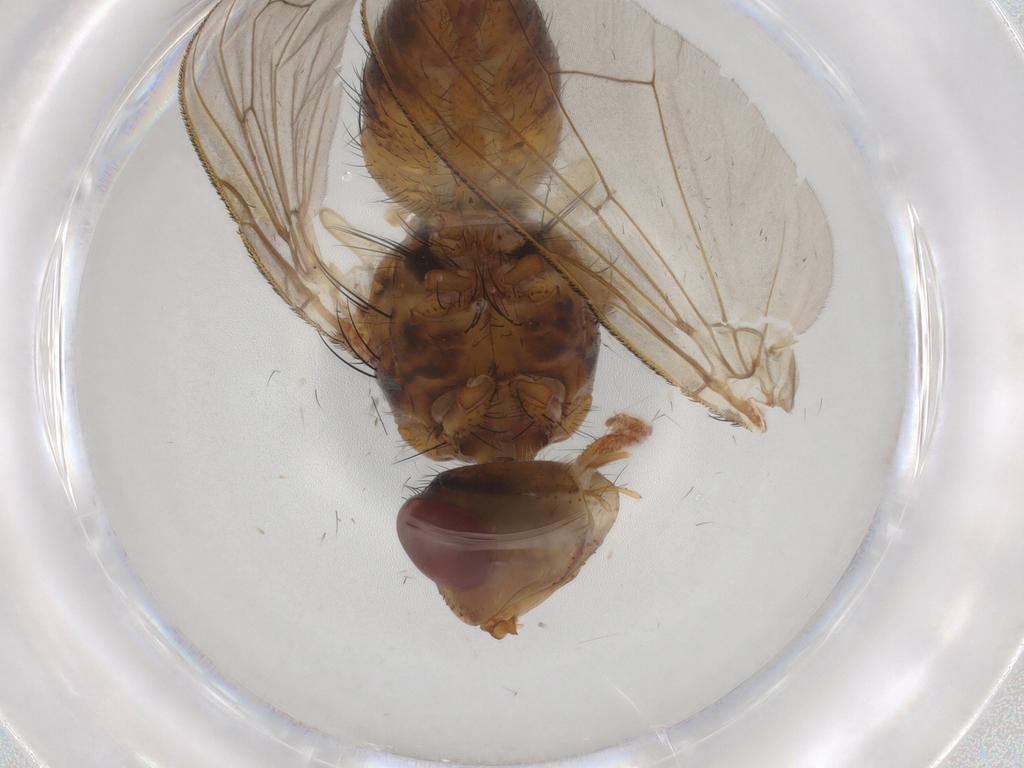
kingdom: Animalia
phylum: Arthropoda
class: Insecta
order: Diptera
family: Tachinidae
